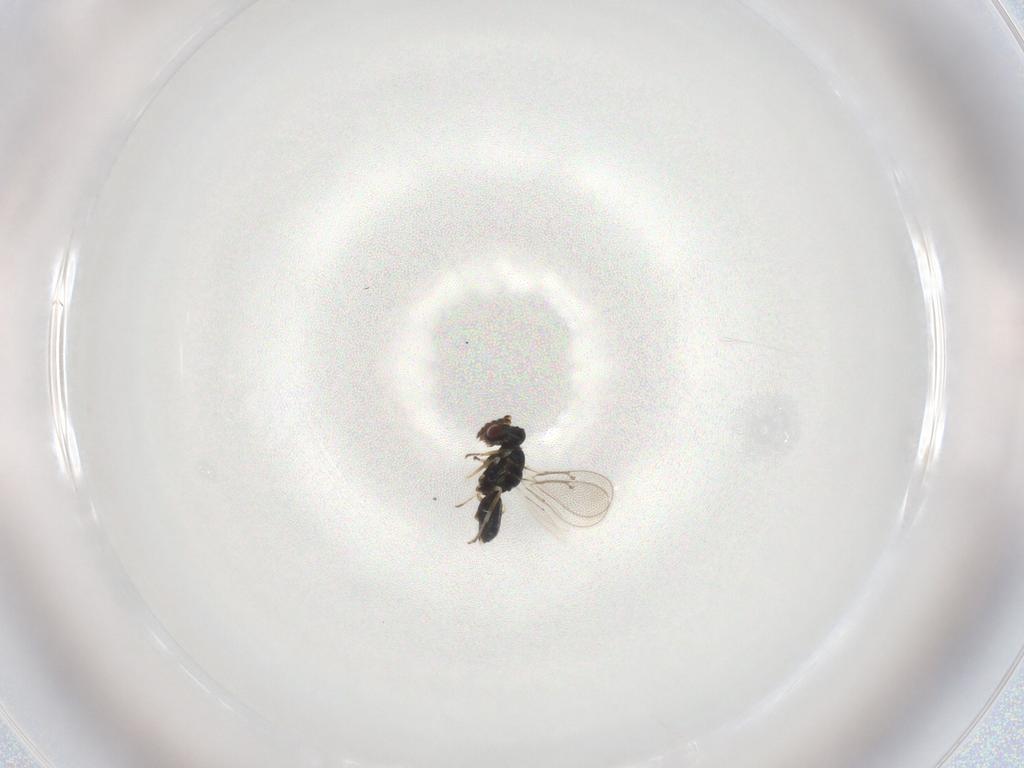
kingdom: Animalia
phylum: Arthropoda
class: Insecta
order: Hymenoptera
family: Eulophidae
